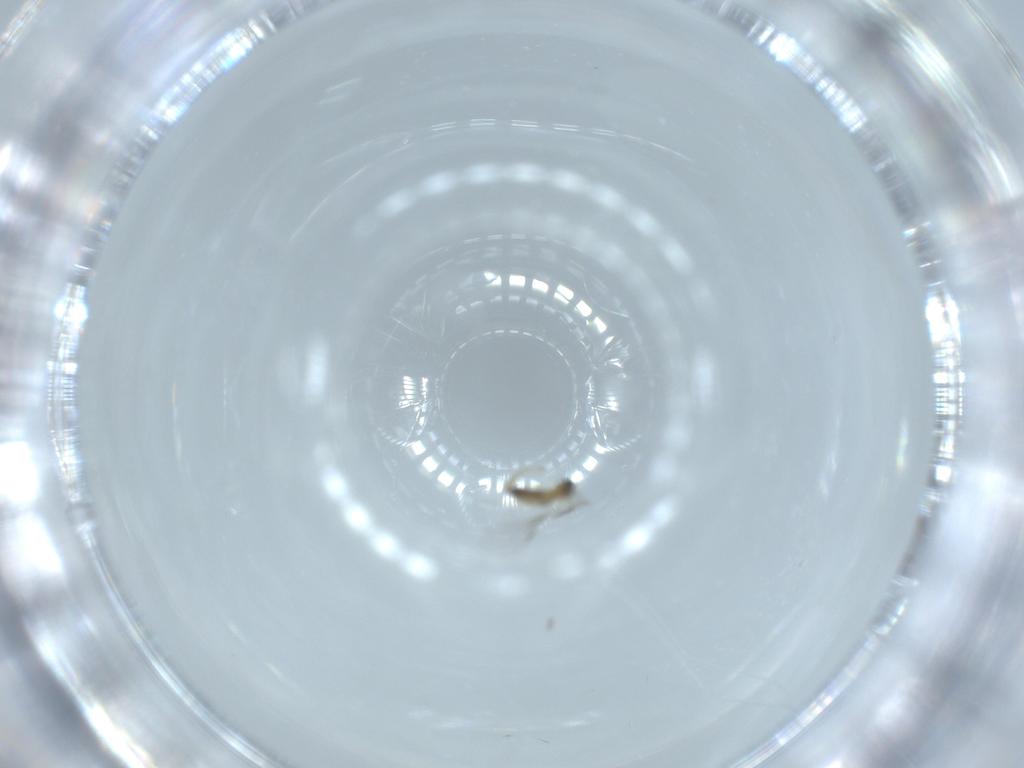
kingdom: Animalia
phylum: Arthropoda
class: Insecta
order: Diptera
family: Cecidomyiidae
